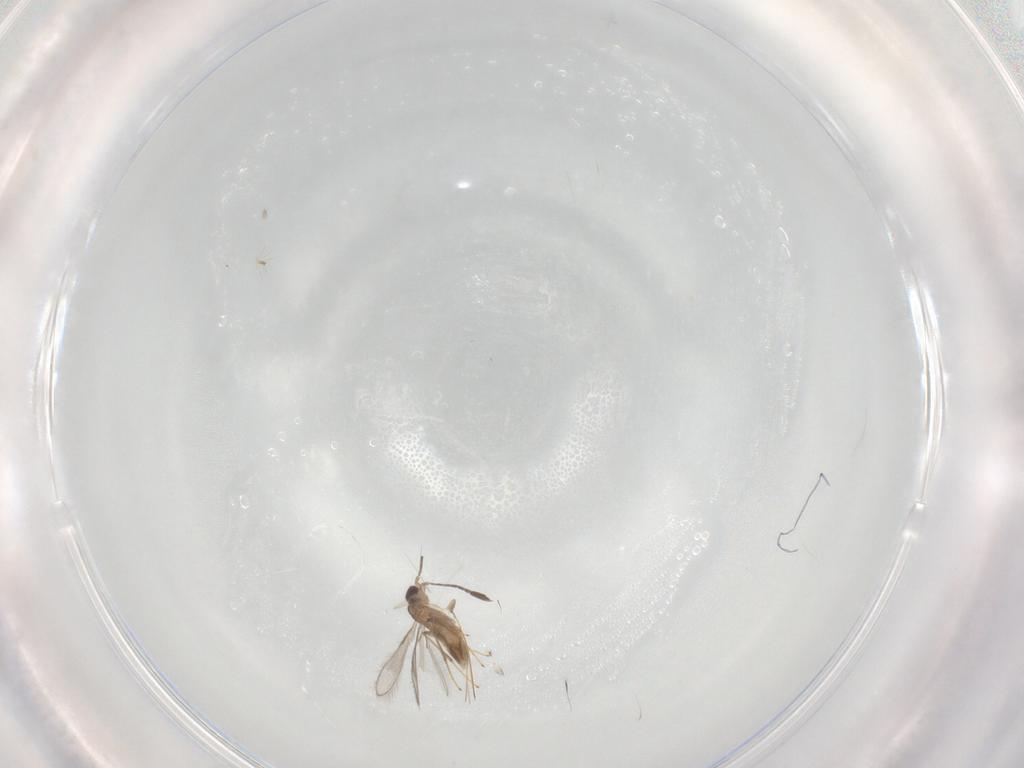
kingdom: Animalia
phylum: Arthropoda
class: Insecta
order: Hymenoptera
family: Mymaridae
